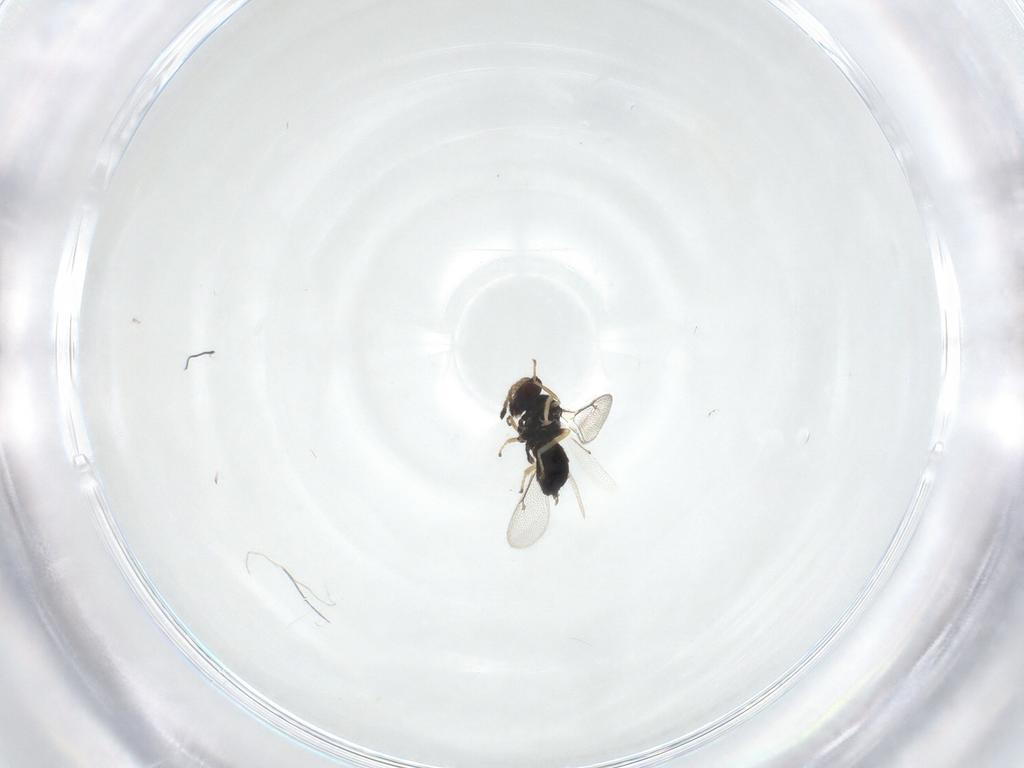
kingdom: Animalia
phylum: Arthropoda
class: Insecta
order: Hymenoptera
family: Eulophidae
